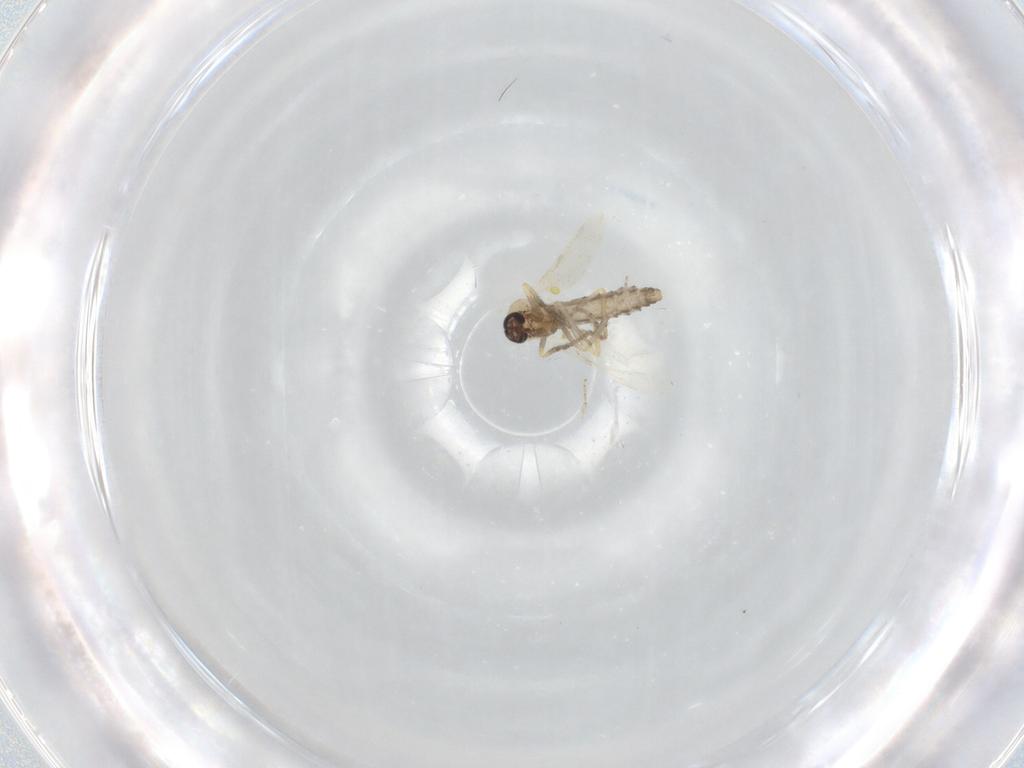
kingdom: Animalia
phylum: Arthropoda
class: Insecta
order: Diptera
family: Ceratopogonidae
